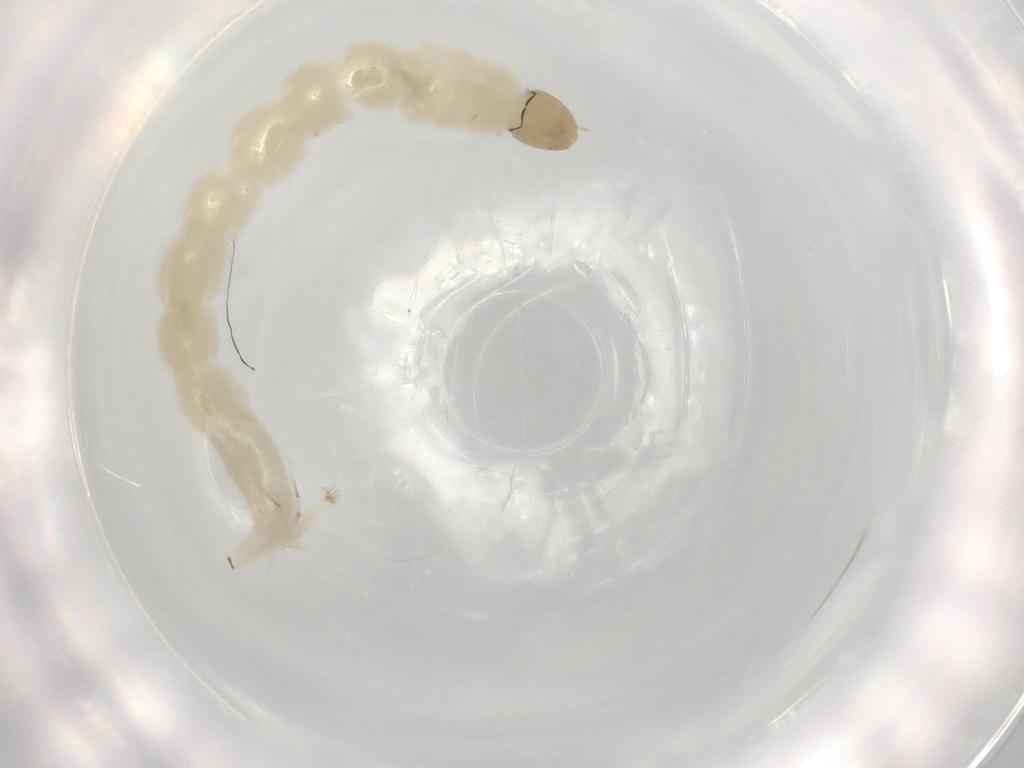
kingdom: Animalia
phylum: Arthropoda
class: Insecta
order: Diptera
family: Chironomidae
